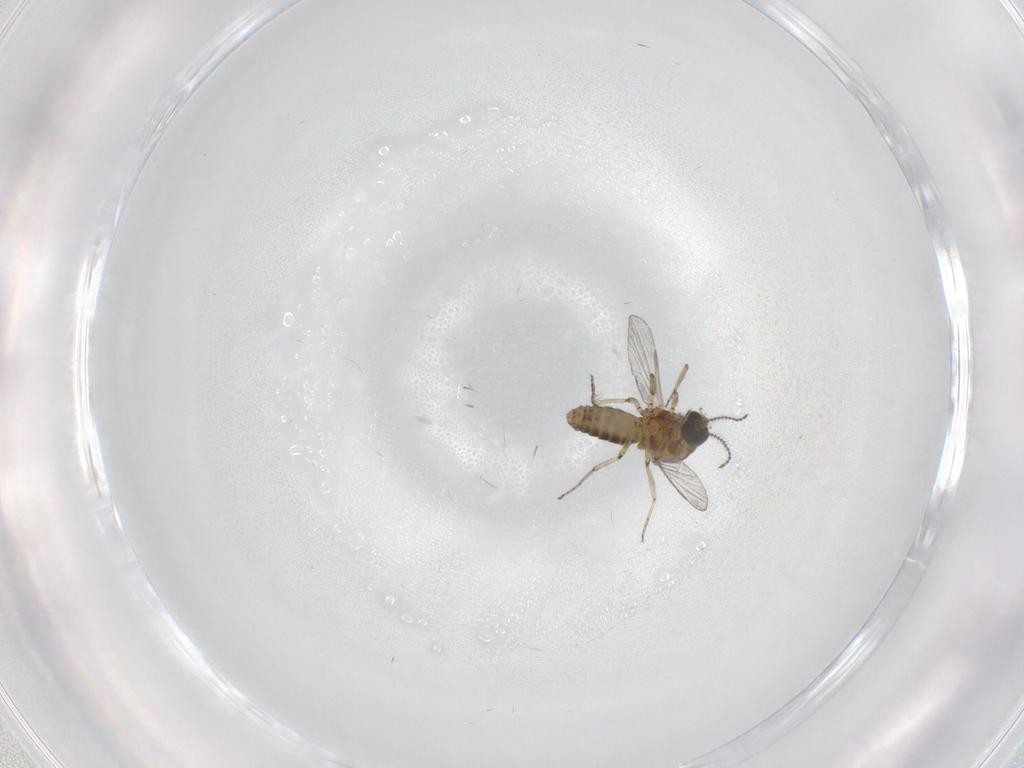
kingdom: Animalia
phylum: Arthropoda
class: Insecta
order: Diptera
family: Ceratopogonidae
